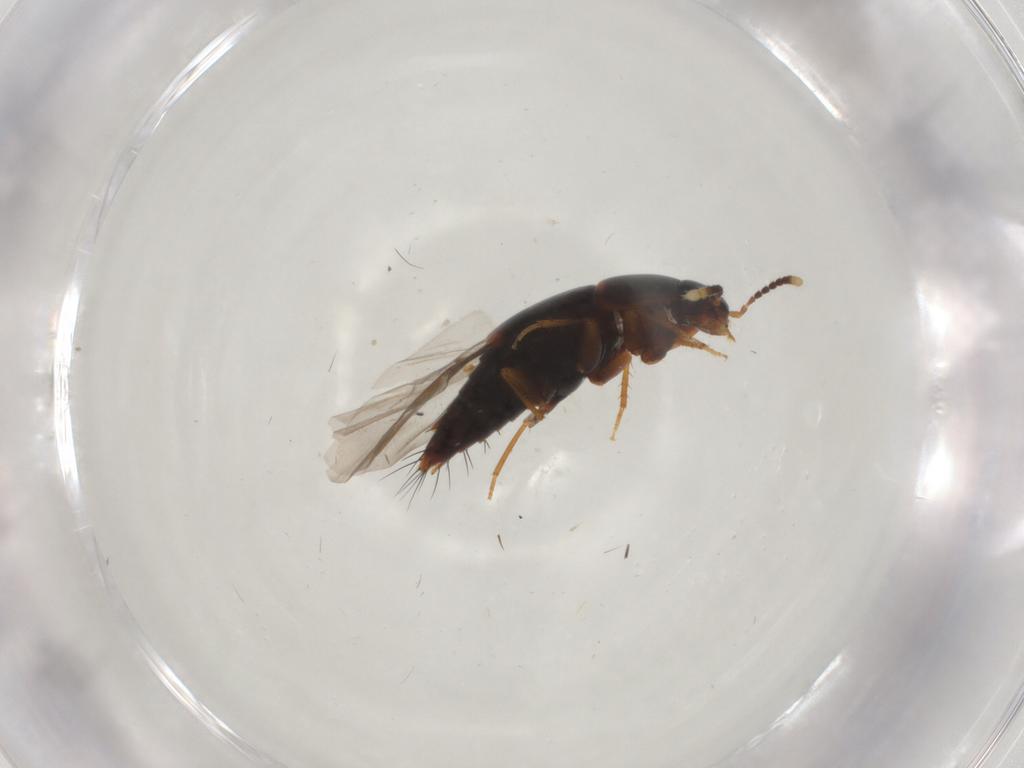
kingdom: Animalia
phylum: Arthropoda
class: Insecta
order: Coleoptera
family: Staphylinidae
